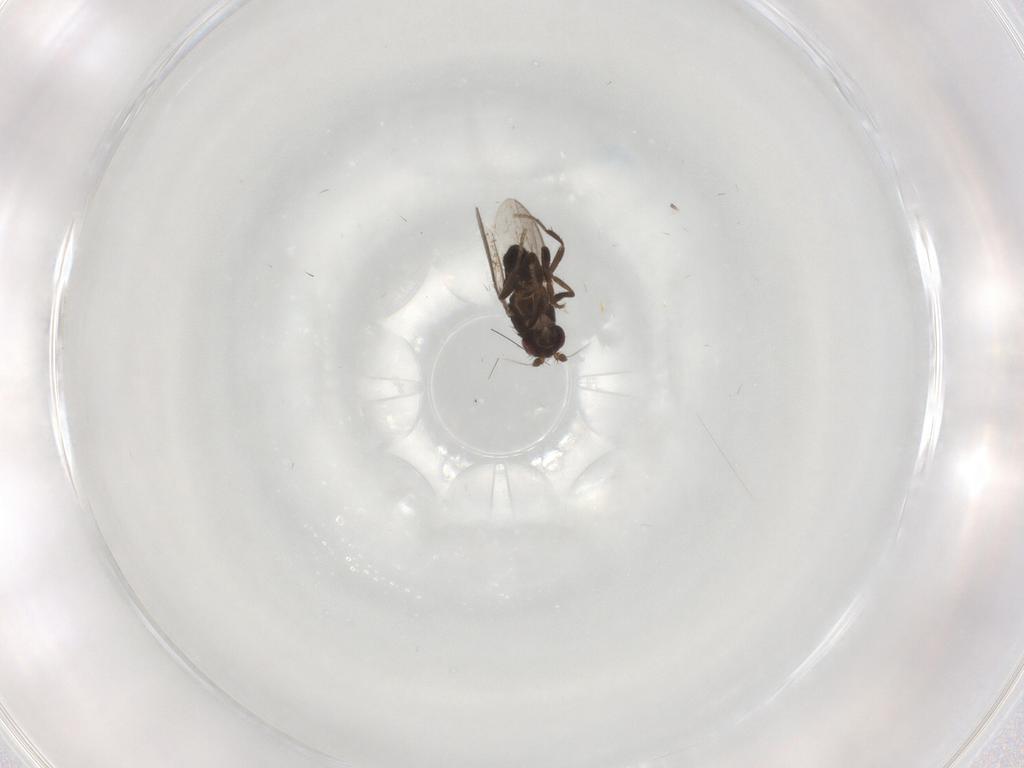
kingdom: Animalia
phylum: Arthropoda
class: Insecta
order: Diptera
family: Sphaeroceridae
